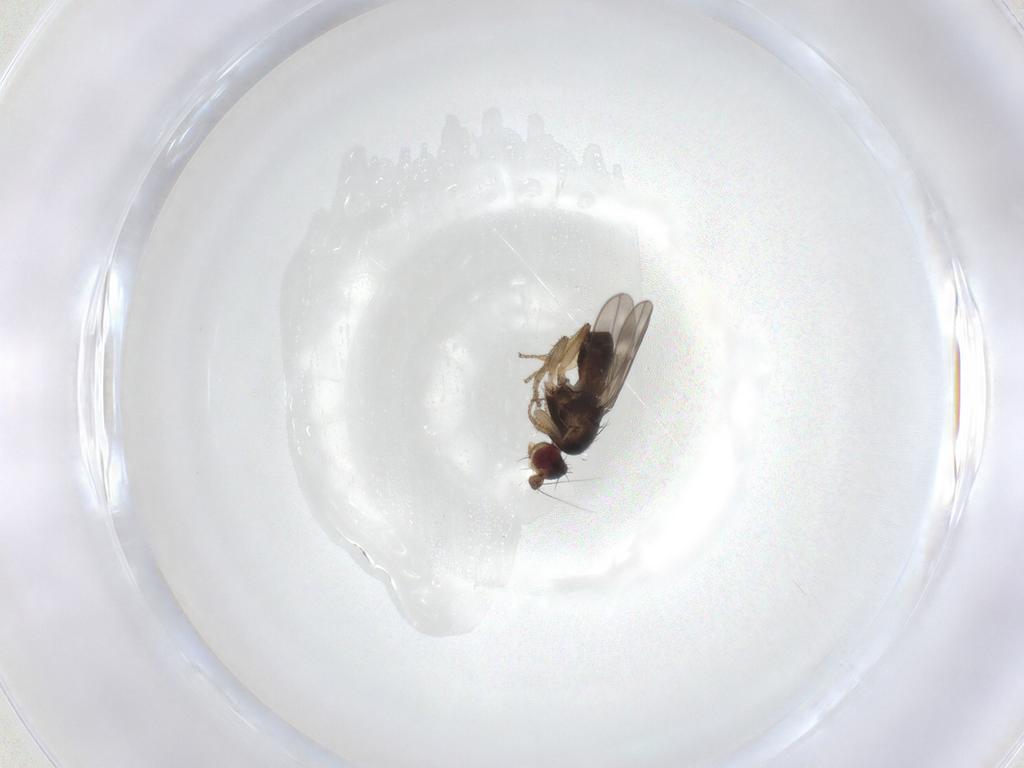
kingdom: Animalia
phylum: Arthropoda
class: Insecta
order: Diptera
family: Sphaeroceridae
